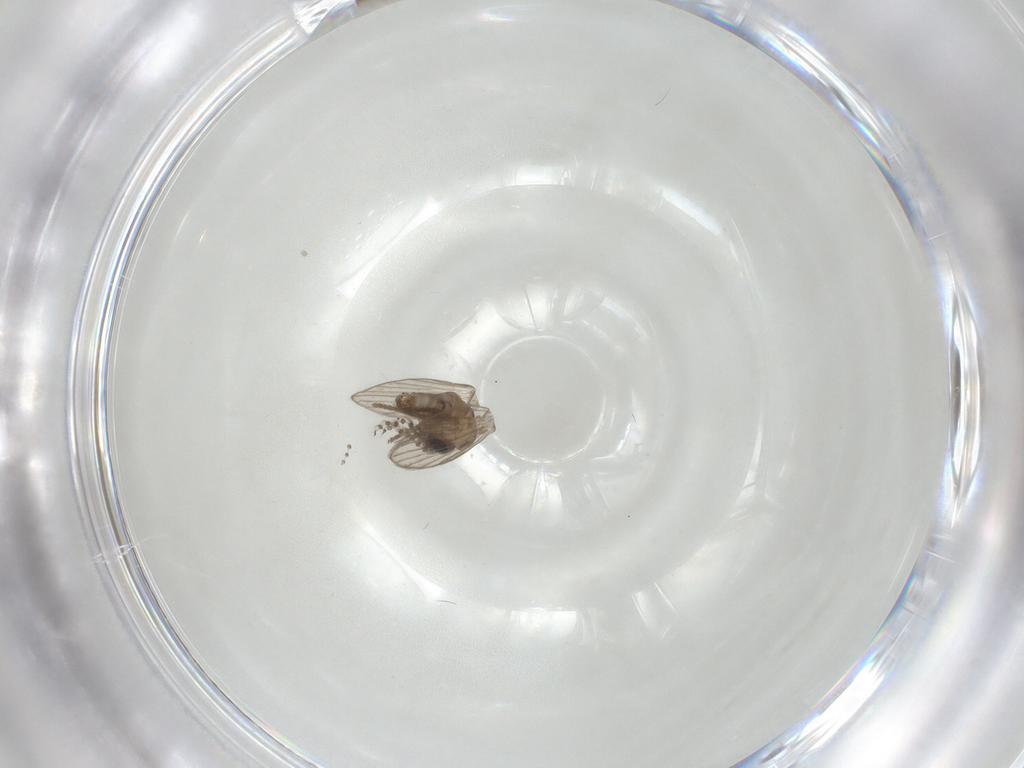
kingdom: Animalia
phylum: Arthropoda
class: Insecta
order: Diptera
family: Psychodidae
